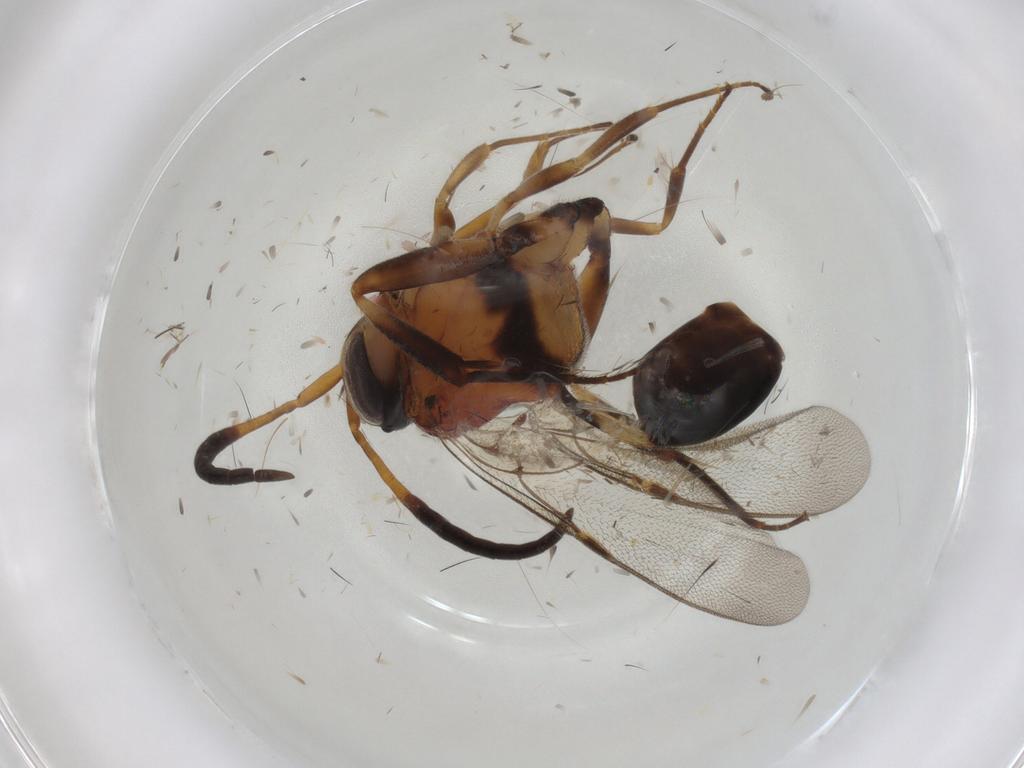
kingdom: Animalia
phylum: Arthropoda
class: Insecta
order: Hymenoptera
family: Evaniidae
